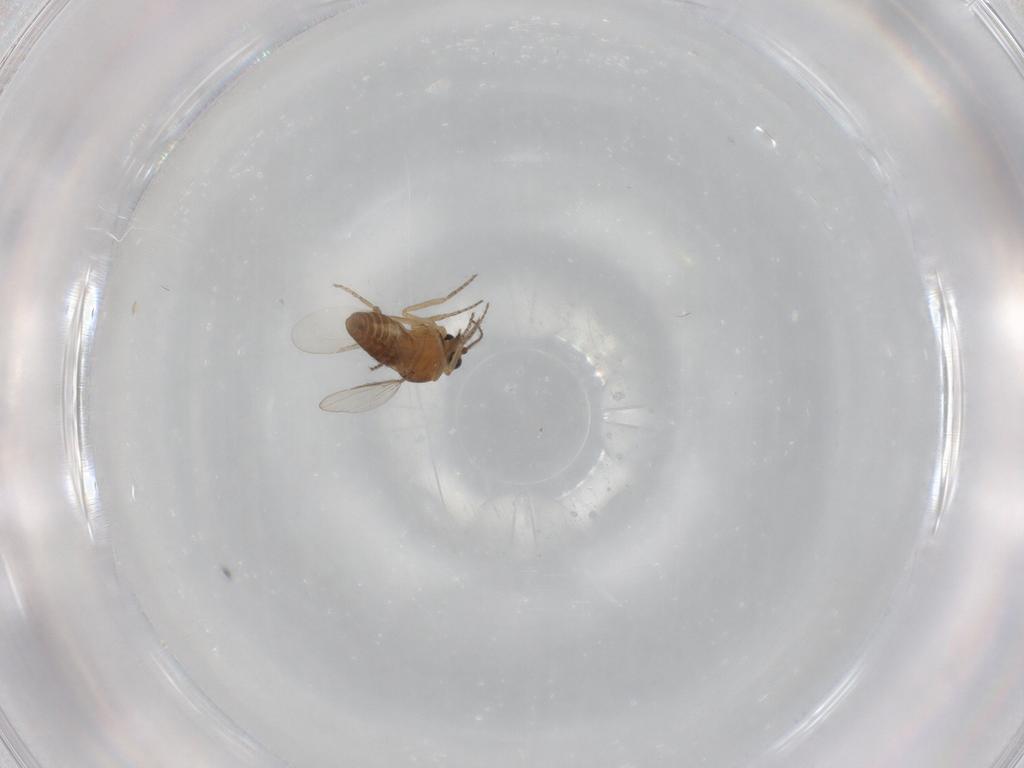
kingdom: Animalia
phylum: Arthropoda
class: Insecta
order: Diptera
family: Ceratopogonidae
